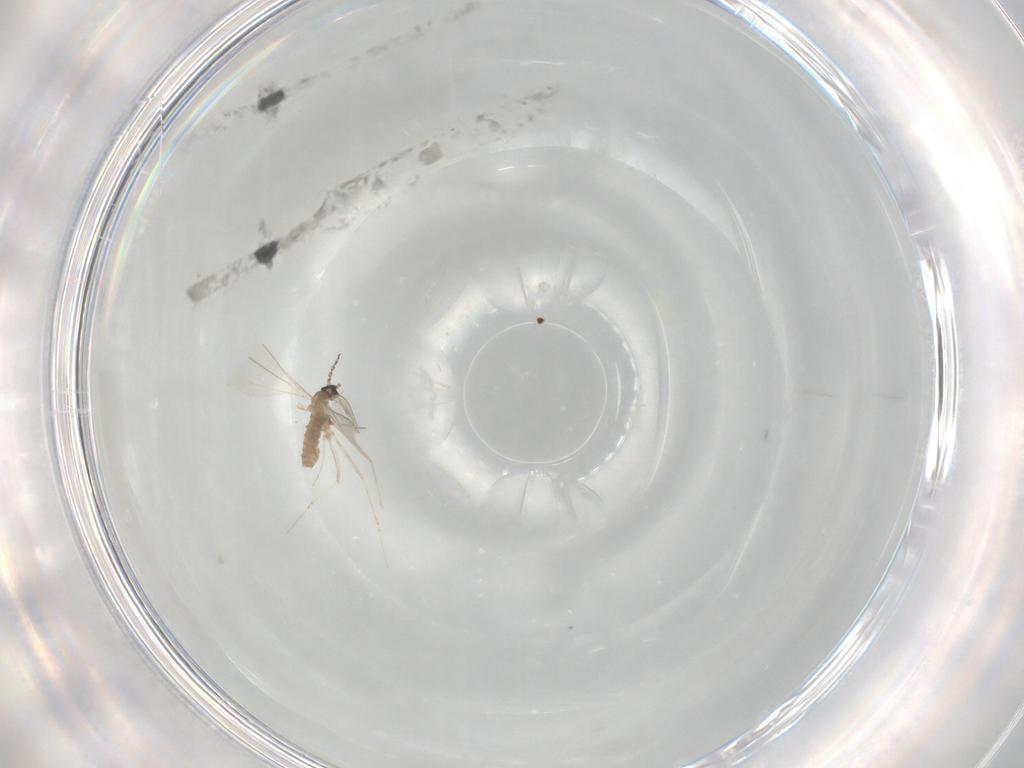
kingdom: Animalia
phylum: Arthropoda
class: Insecta
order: Diptera
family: Cecidomyiidae
